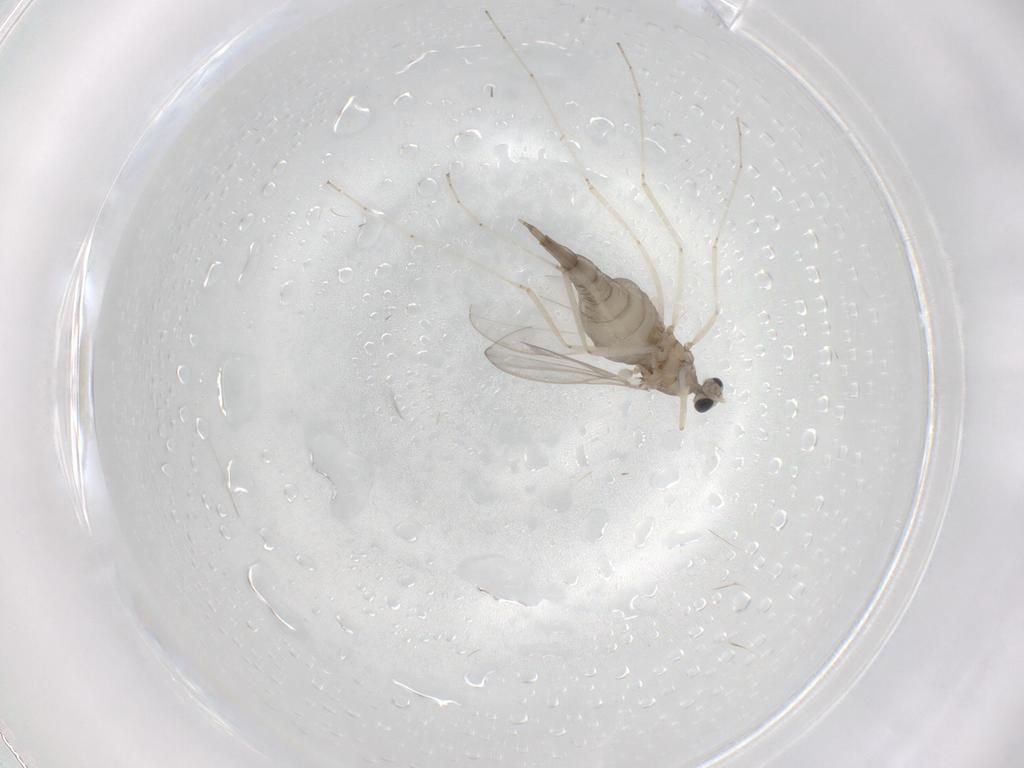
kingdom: Animalia
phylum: Arthropoda
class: Insecta
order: Diptera
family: Cecidomyiidae
